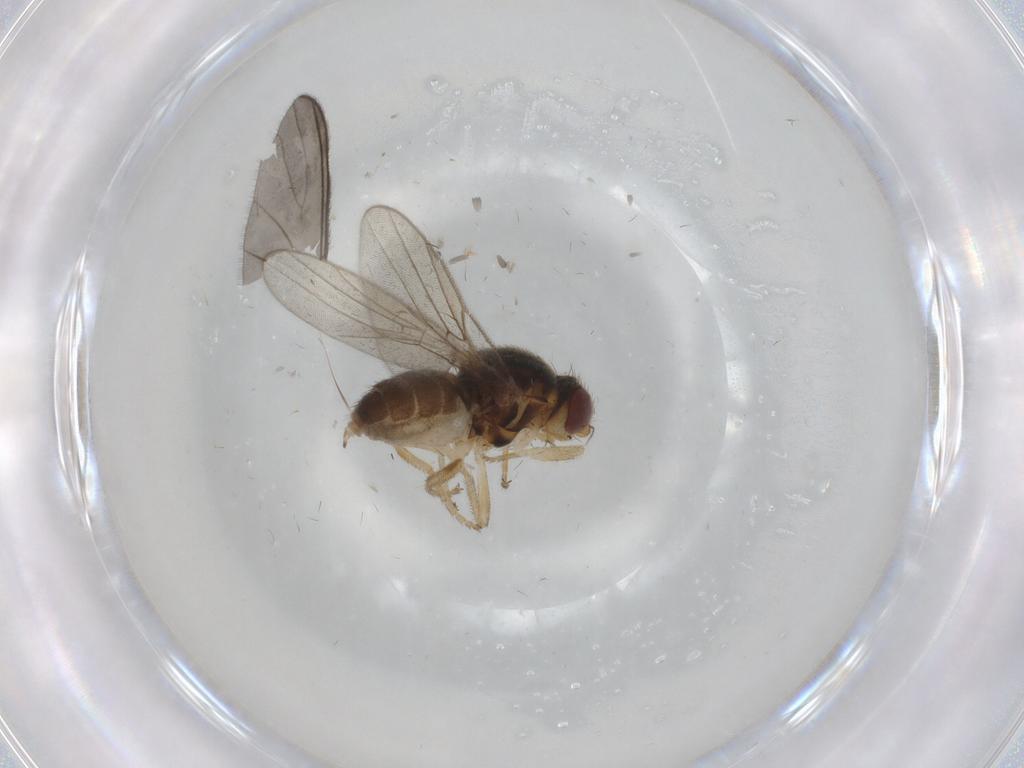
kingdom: Animalia
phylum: Arthropoda
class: Insecta
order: Diptera
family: Chloropidae
